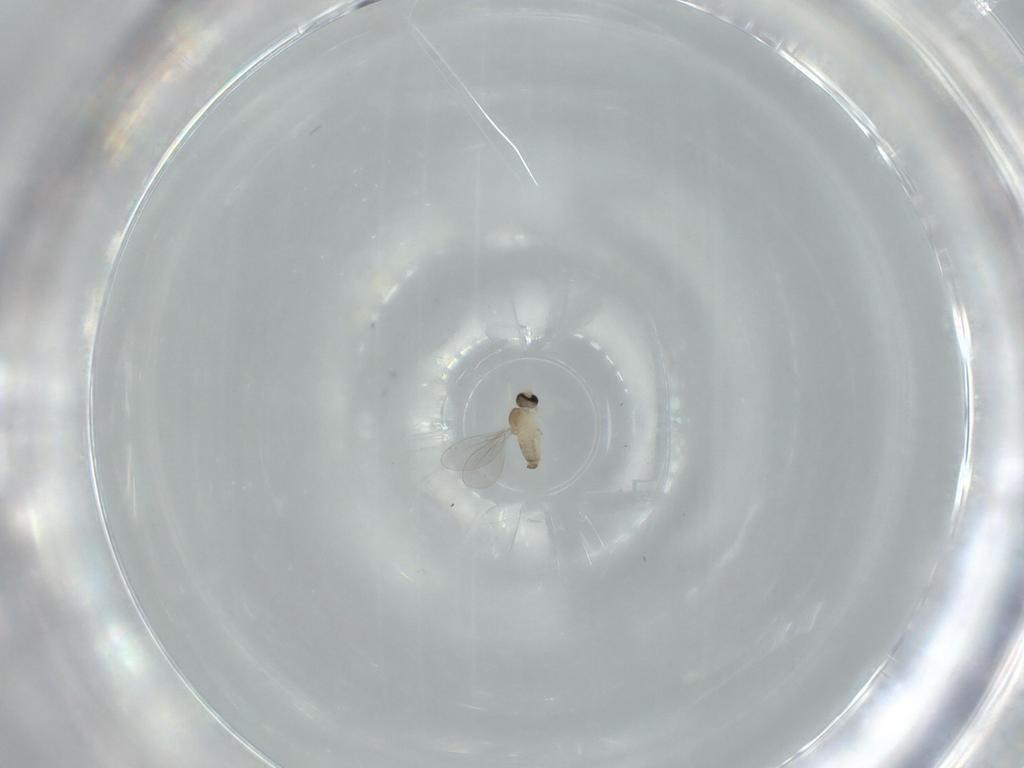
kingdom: Animalia
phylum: Arthropoda
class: Insecta
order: Diptera
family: Cecidomyiidae
